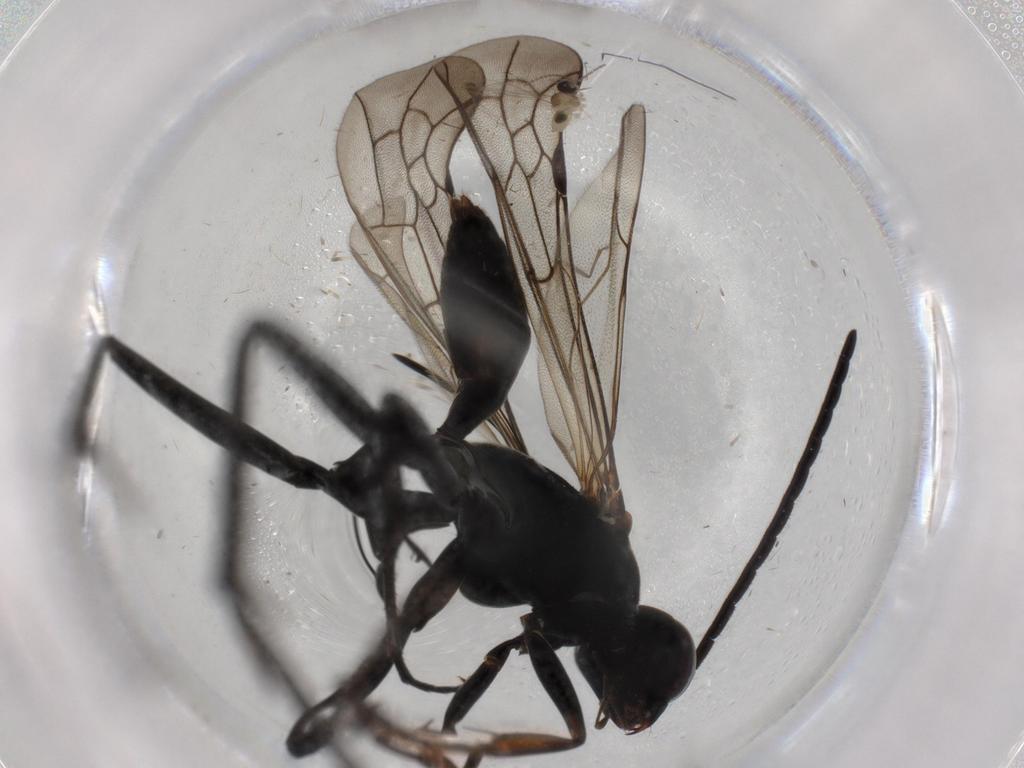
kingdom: Animalia
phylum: Arthropoda
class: Insecta
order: Hymenoptera
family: Pompilidae
